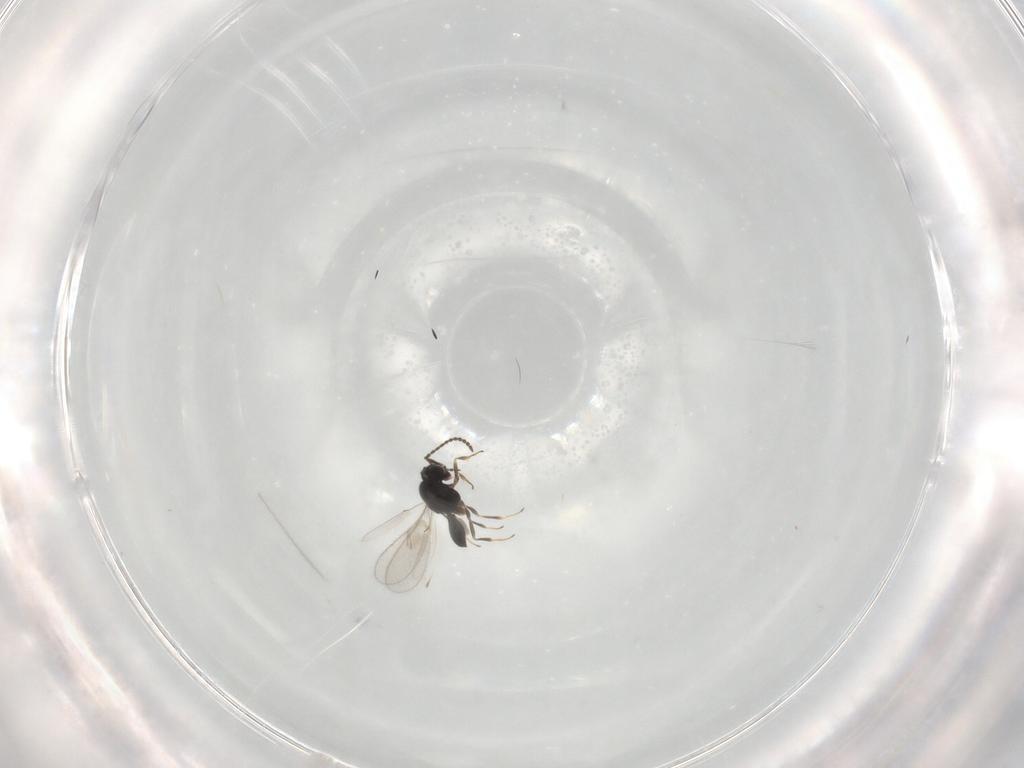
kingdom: Animalia
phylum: Arthropoda
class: Insecta
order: Hymenoptera
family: Scelionidae
